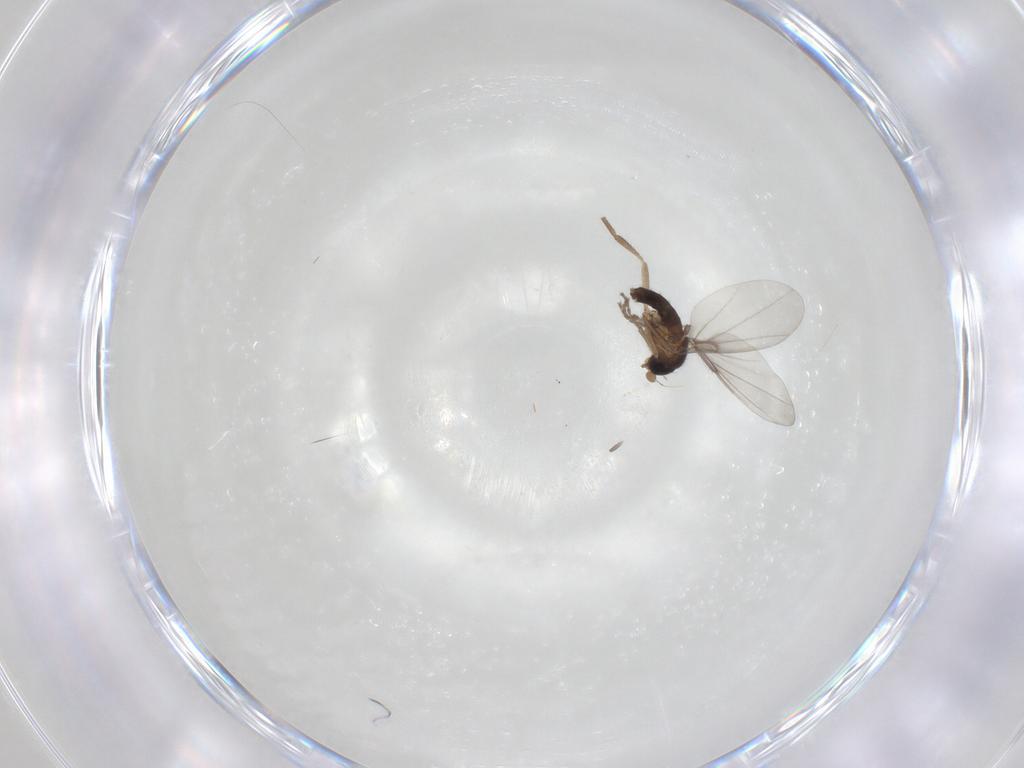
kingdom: Animalia
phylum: Arthropoda
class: Insecta
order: Diptera
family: Phoridae
